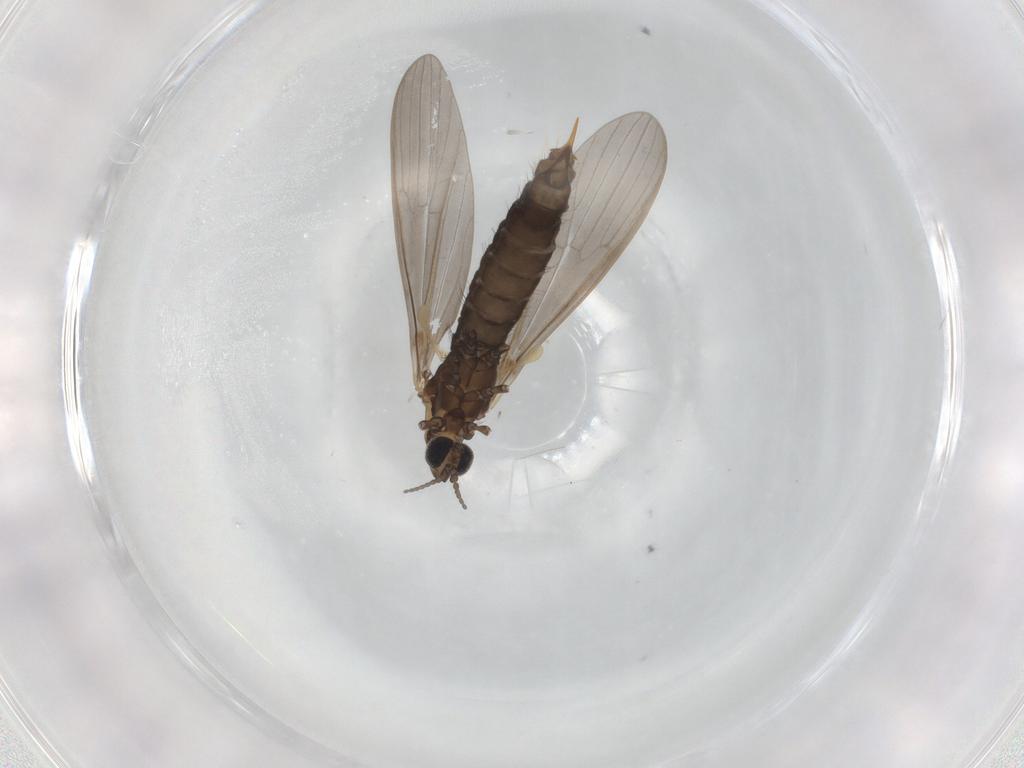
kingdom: Animalia
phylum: Arthropoda
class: Insecta
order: Diptera
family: Limoniidae
